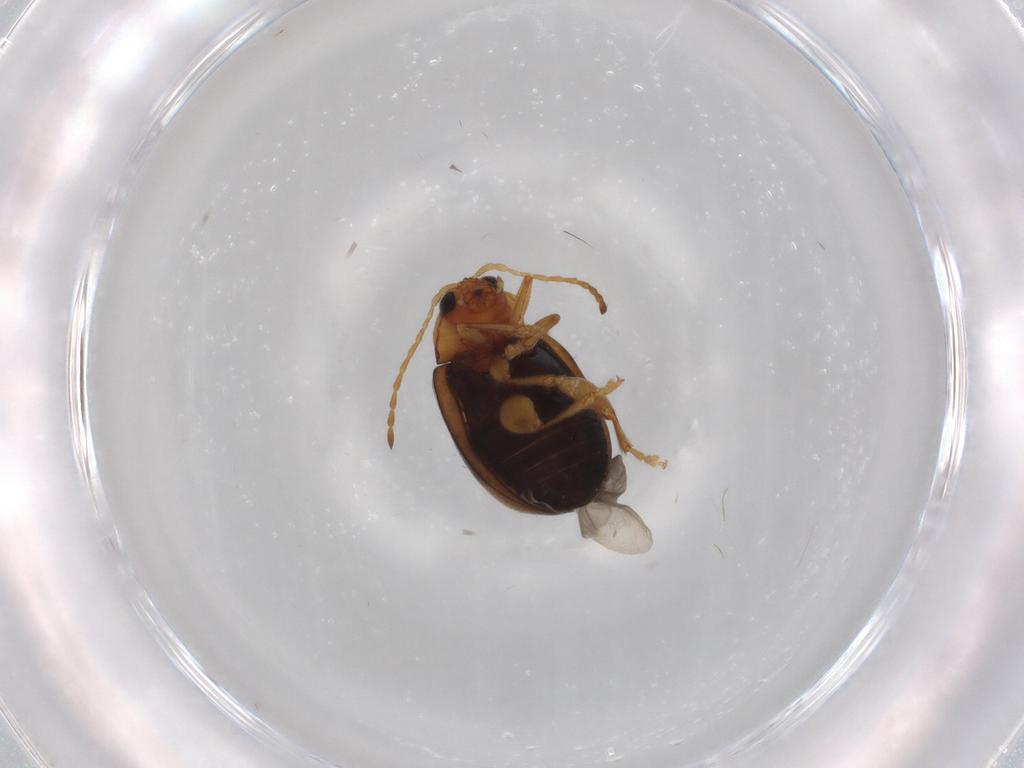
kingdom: Animalia
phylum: Arthropoda
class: Insecta
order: Coleoptera
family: Chrysomelidae
